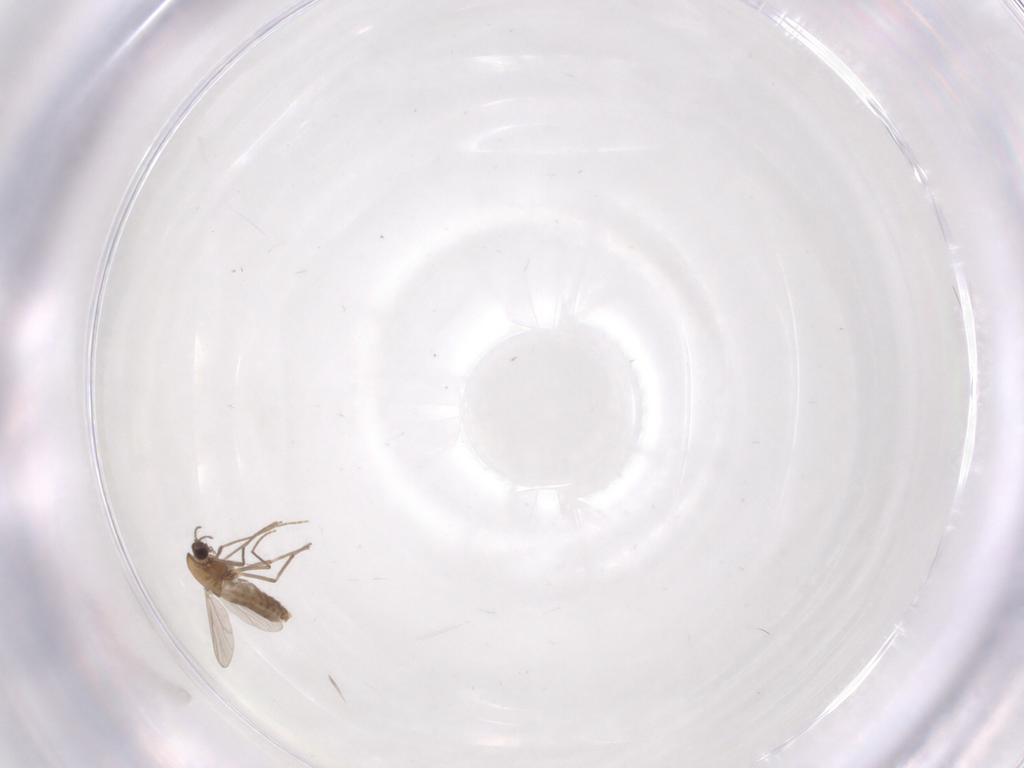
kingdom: Animalia
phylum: Arthropoda
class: Insecta
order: Diptera
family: Chironomidae
